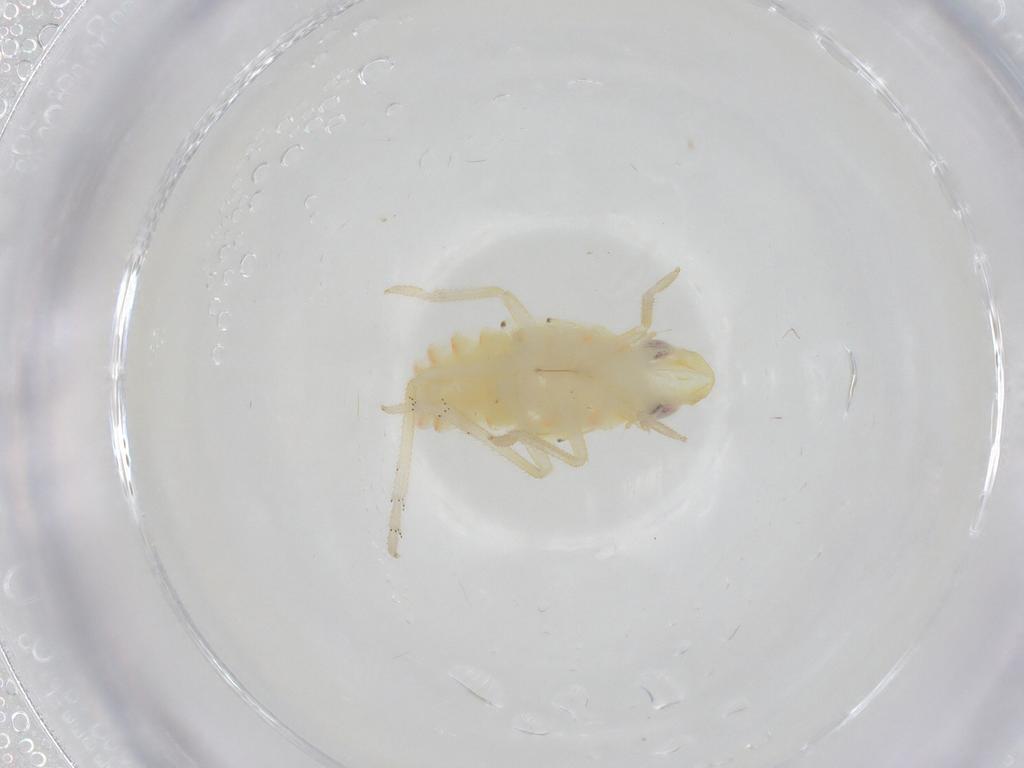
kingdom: Animalia
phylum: Arthropoda
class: Insecta
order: Hemiptera
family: Tropiduchidae
